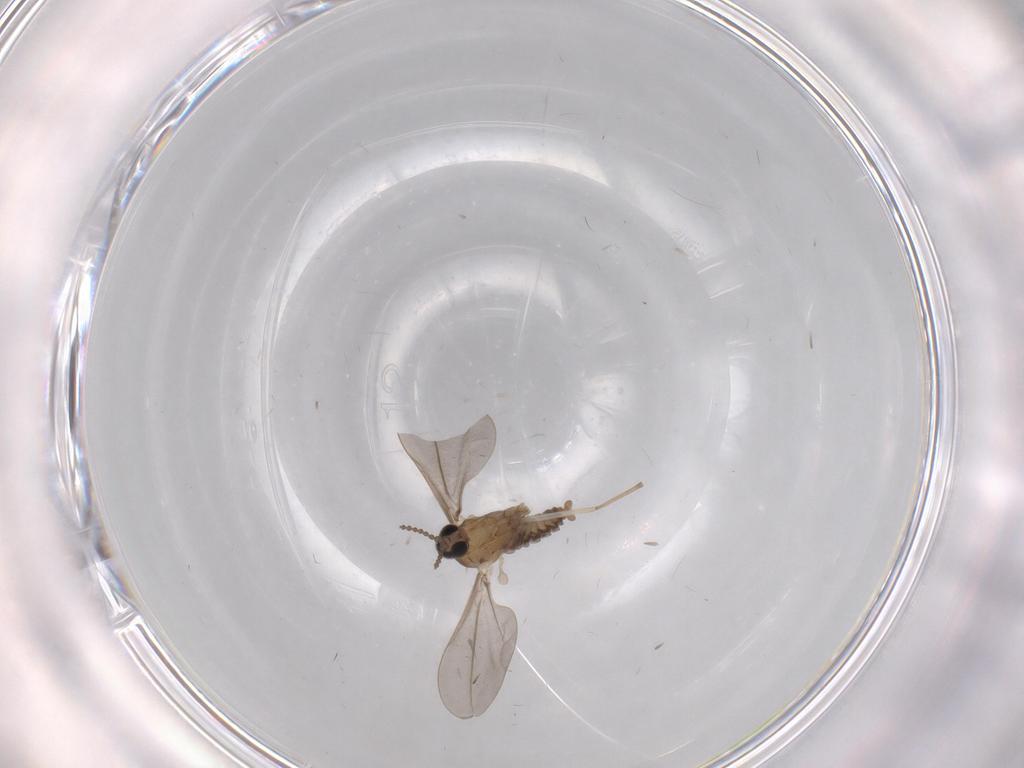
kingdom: Animalia
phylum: Arthropoda
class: Insecta
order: Diptera
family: Cecidomyiidae
